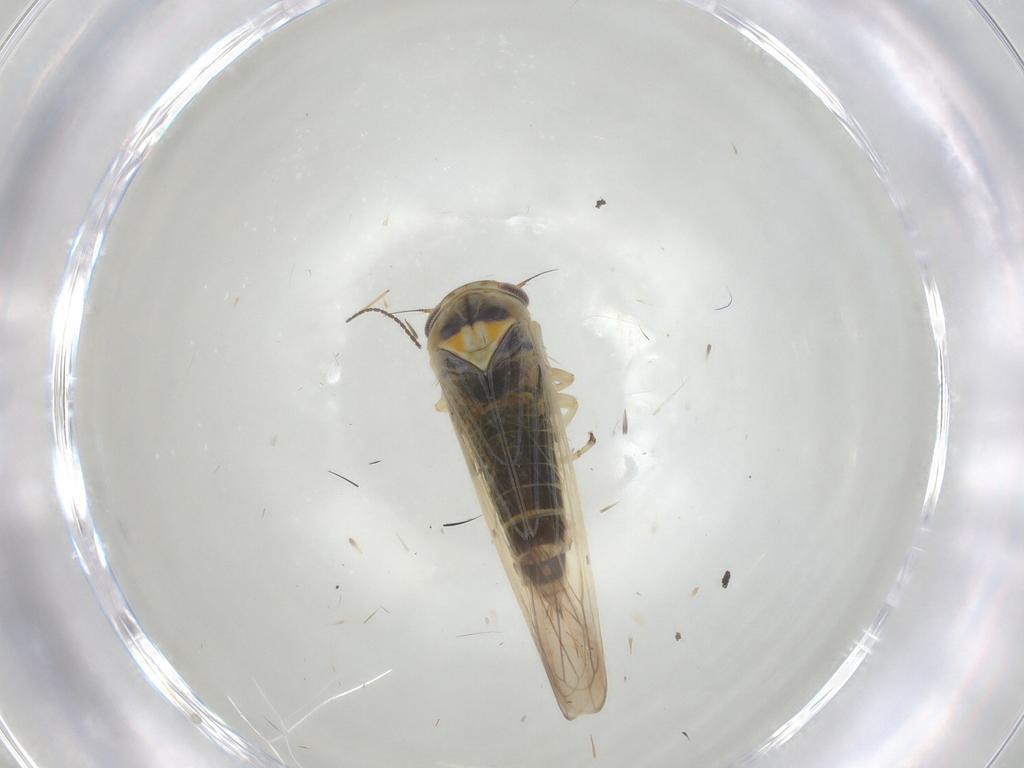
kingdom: Animalia
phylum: Arthropoda
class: Insecta
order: Hemiptera
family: Cicadellidae
